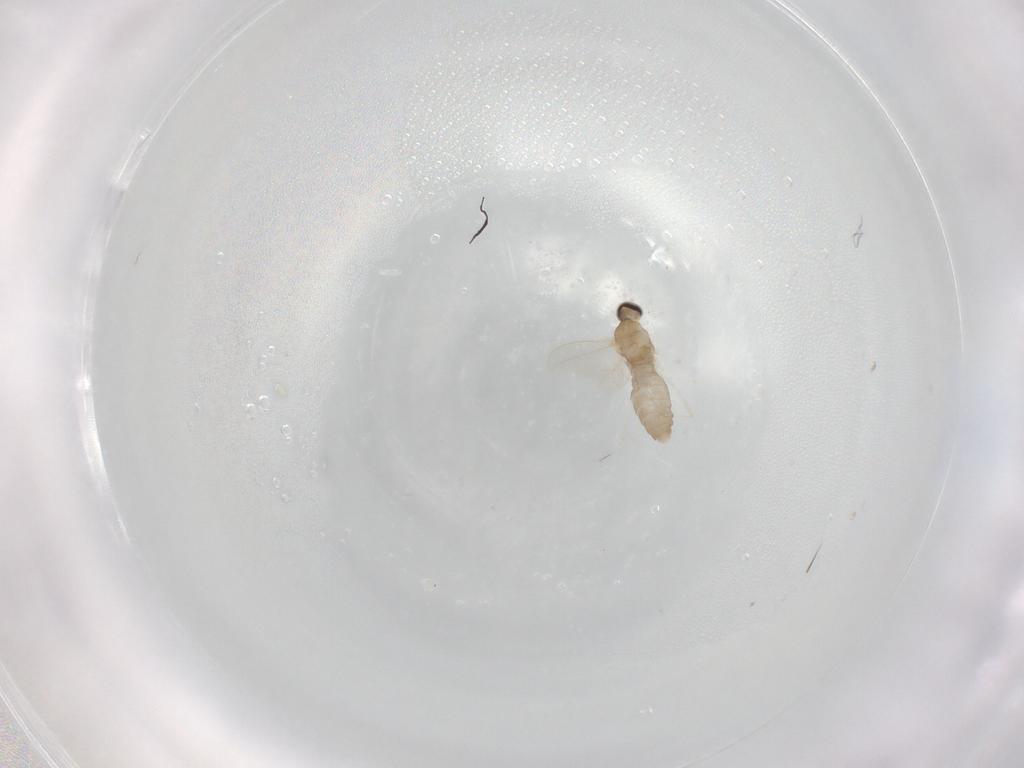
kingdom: Animalia
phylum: Arthropoda
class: Insecta
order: Diptera
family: Cecidomyiidae
